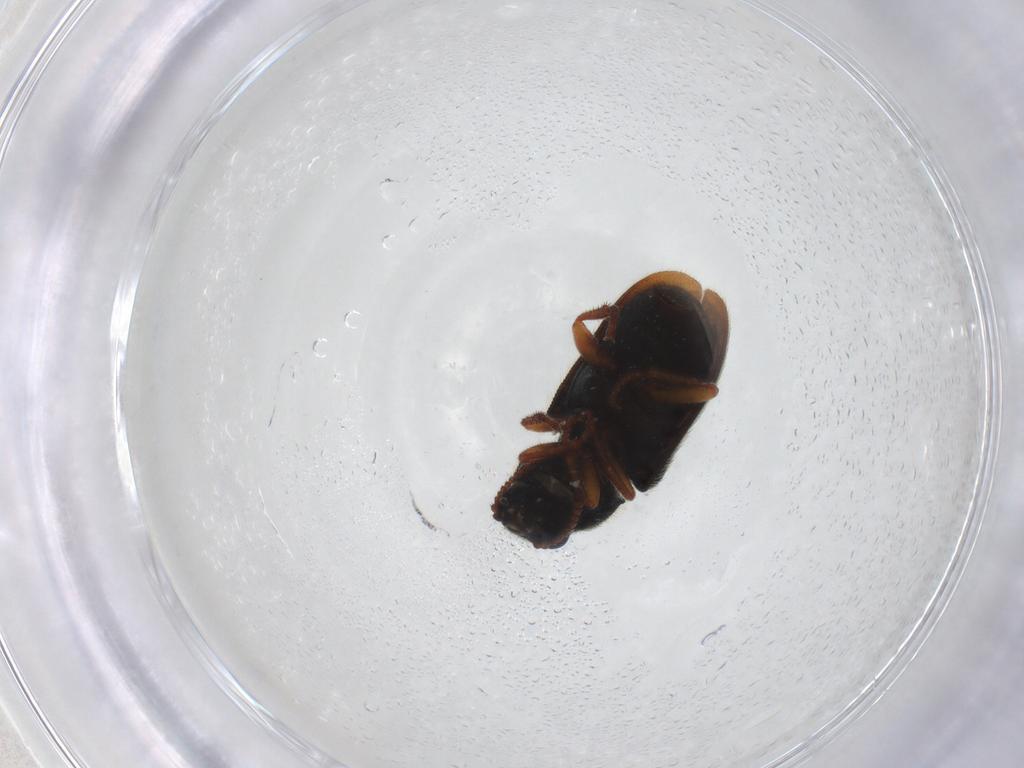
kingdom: Animalia
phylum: Arthropoda
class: Insecta
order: Coleoptera
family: Melyridae
